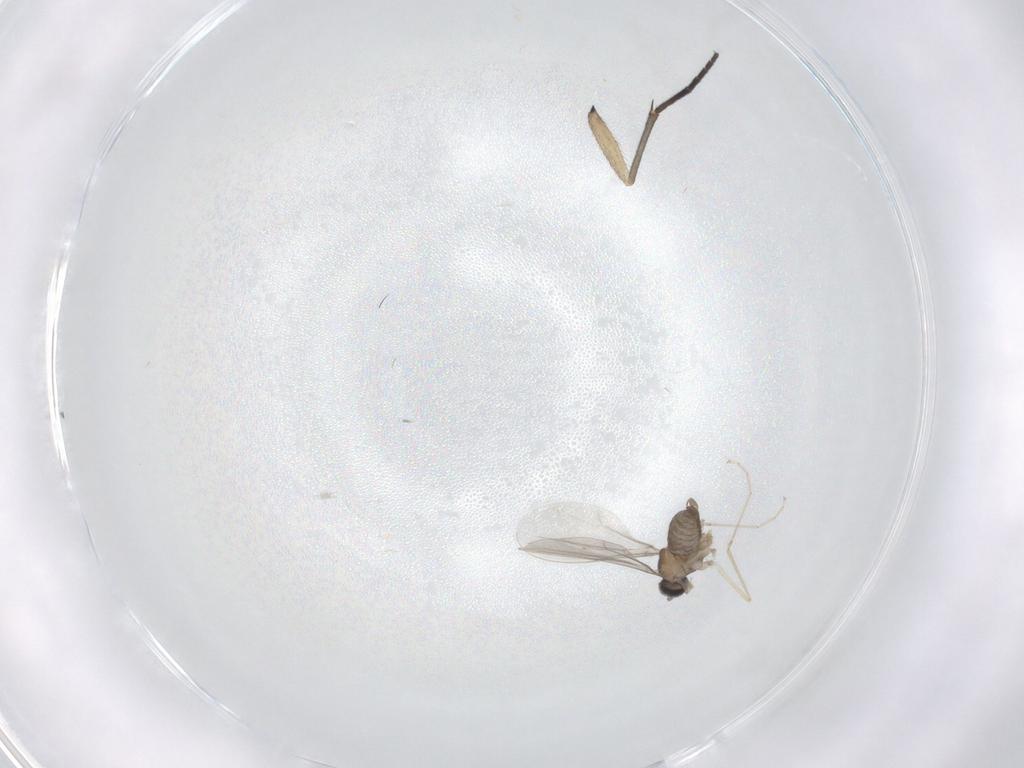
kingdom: Animalia
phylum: Arthropoda
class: Insecta
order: Diptera
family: Cecidomyiidae
